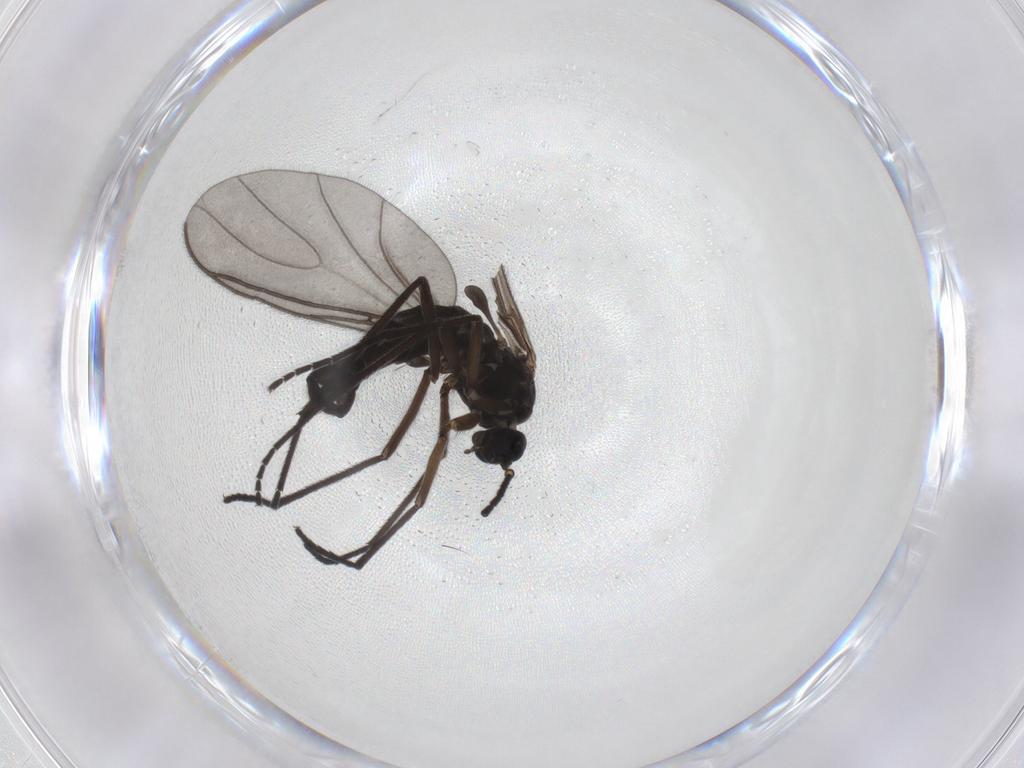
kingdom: Animalia
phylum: Arthropoda
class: Insecta
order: Diptera
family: Sciaridae
